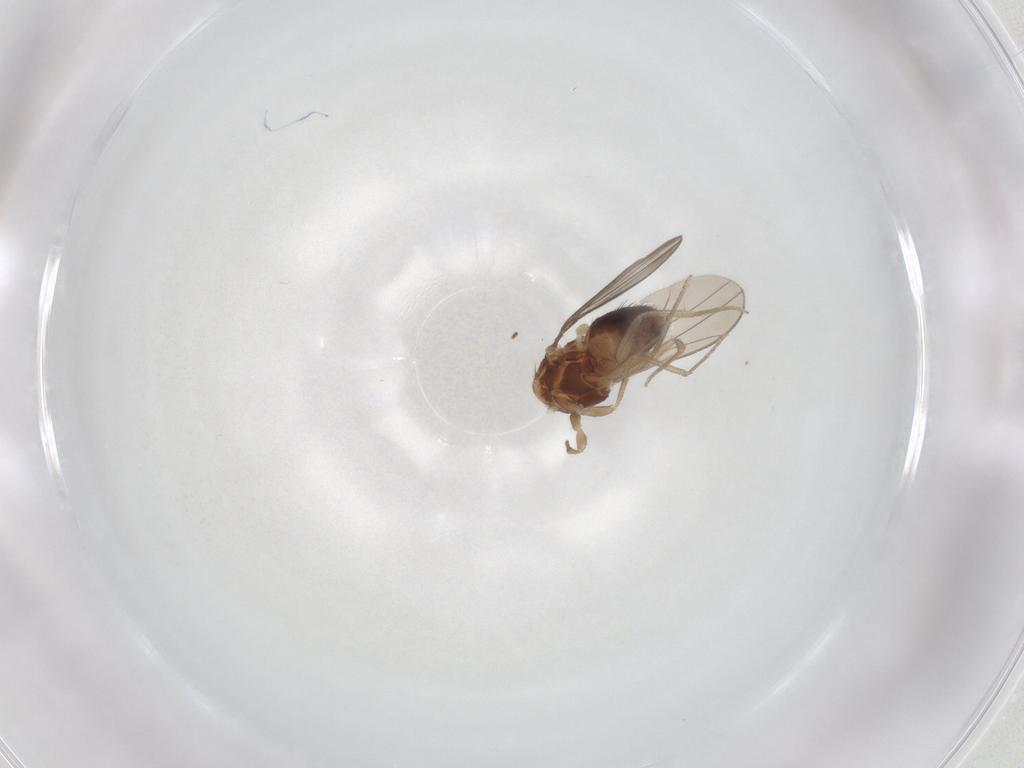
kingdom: Animalia
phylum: Arthropoda
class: Insecta
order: Diptera
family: Drosophilidae
